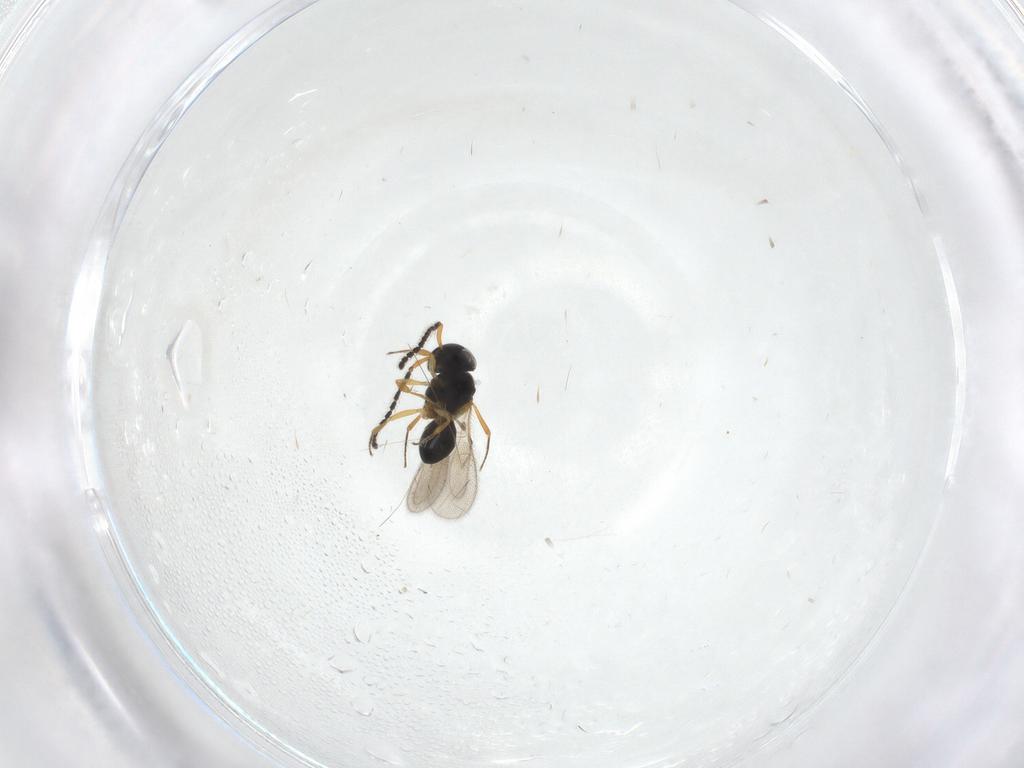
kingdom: Animalia
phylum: Arthropoda
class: Insecta
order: Hymenoptera
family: Scelionidae
